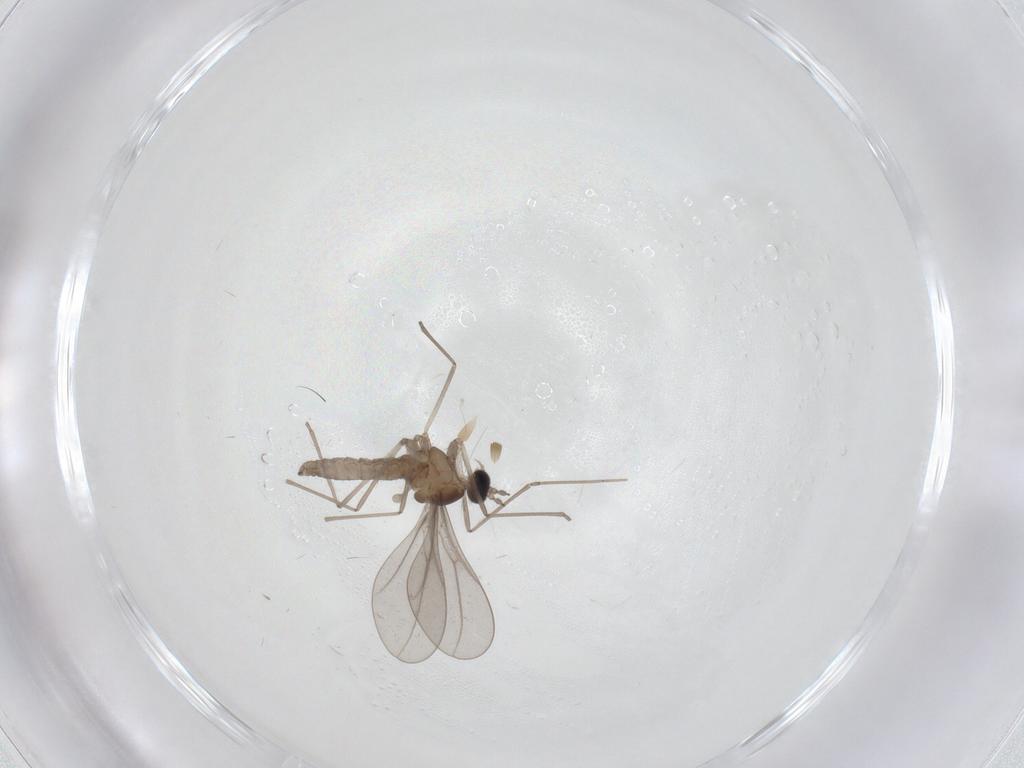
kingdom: Animalia
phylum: Arthropoda
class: Insecta
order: Diptera
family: Cecidomyiidae
